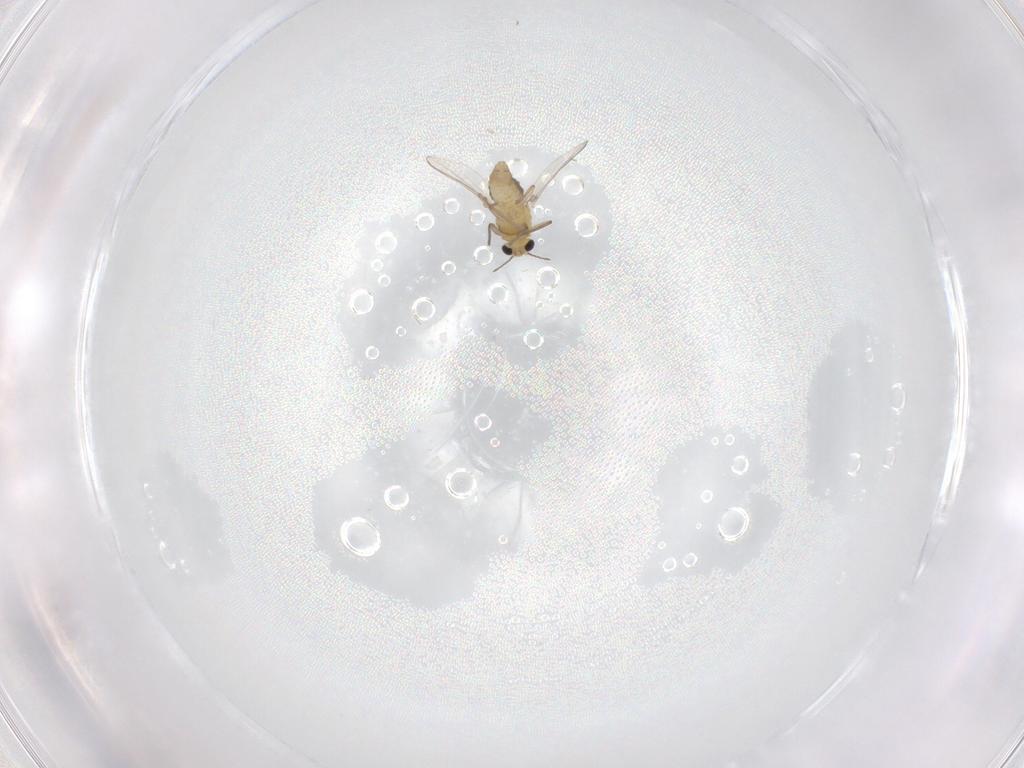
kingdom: Animalia
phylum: Arthropoda
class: Insecta
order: Diptera
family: Chironomidae
